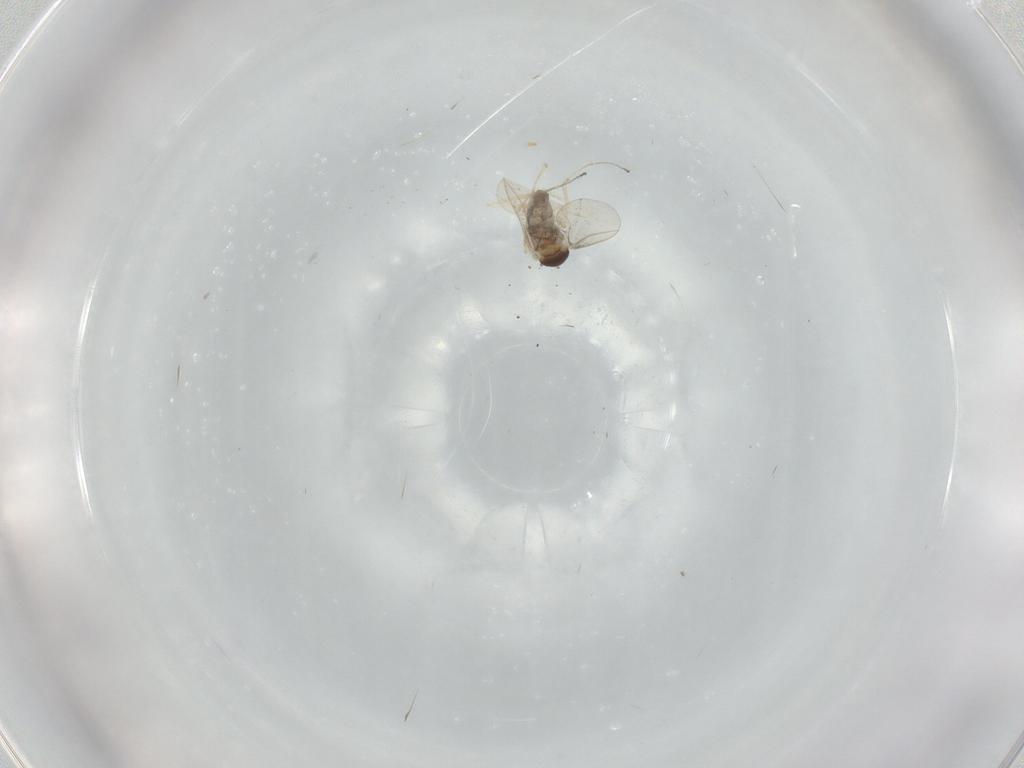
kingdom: Animalia
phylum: Arthropoda
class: Insecta
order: Diptera
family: Cecidomyiidae
